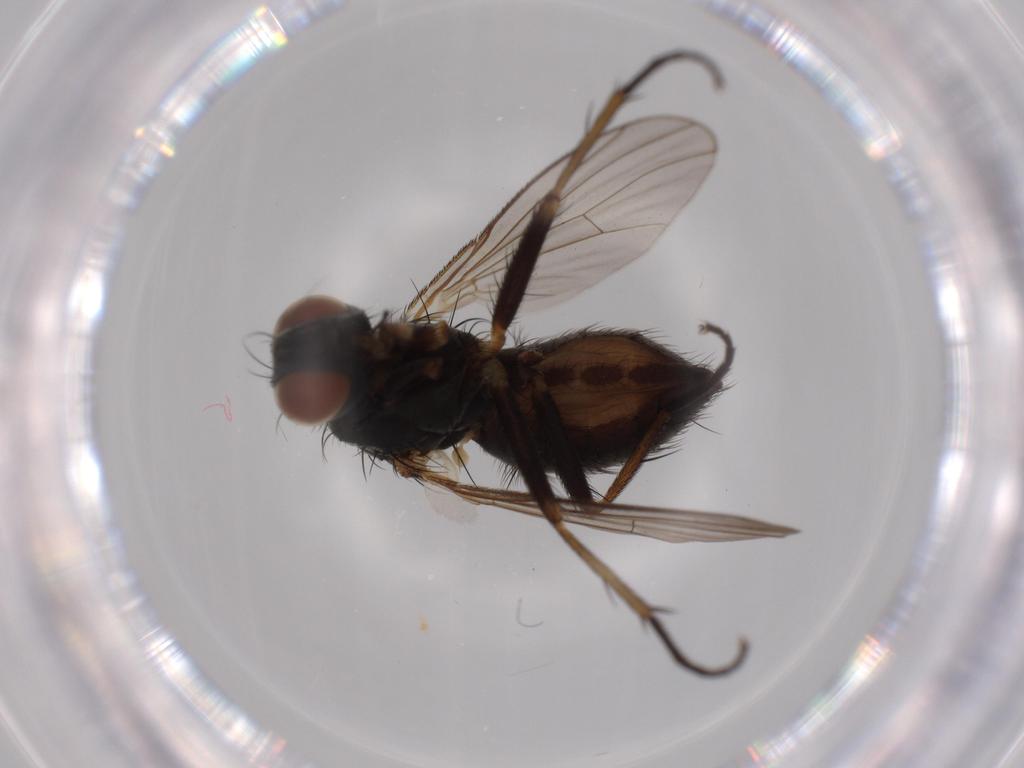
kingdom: Animalia
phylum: Arthropoda
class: Insecta
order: Diptera
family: Muscidae
